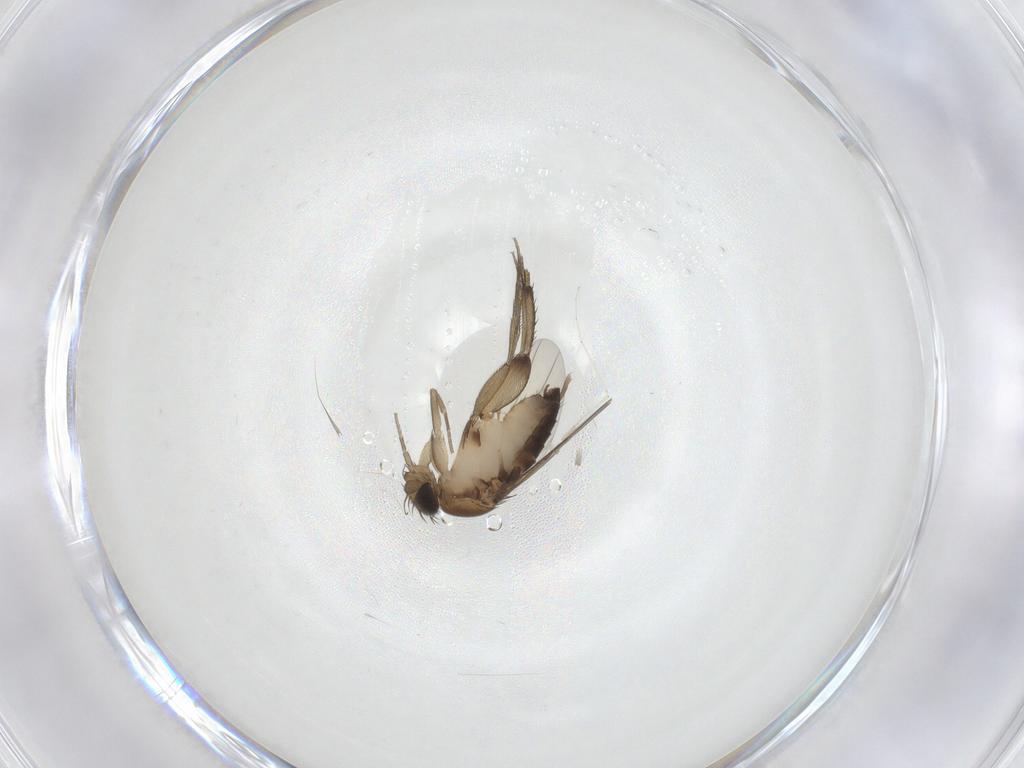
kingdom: Animalia
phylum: Arthropoda
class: Insecta
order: Diptera
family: Phoridae
